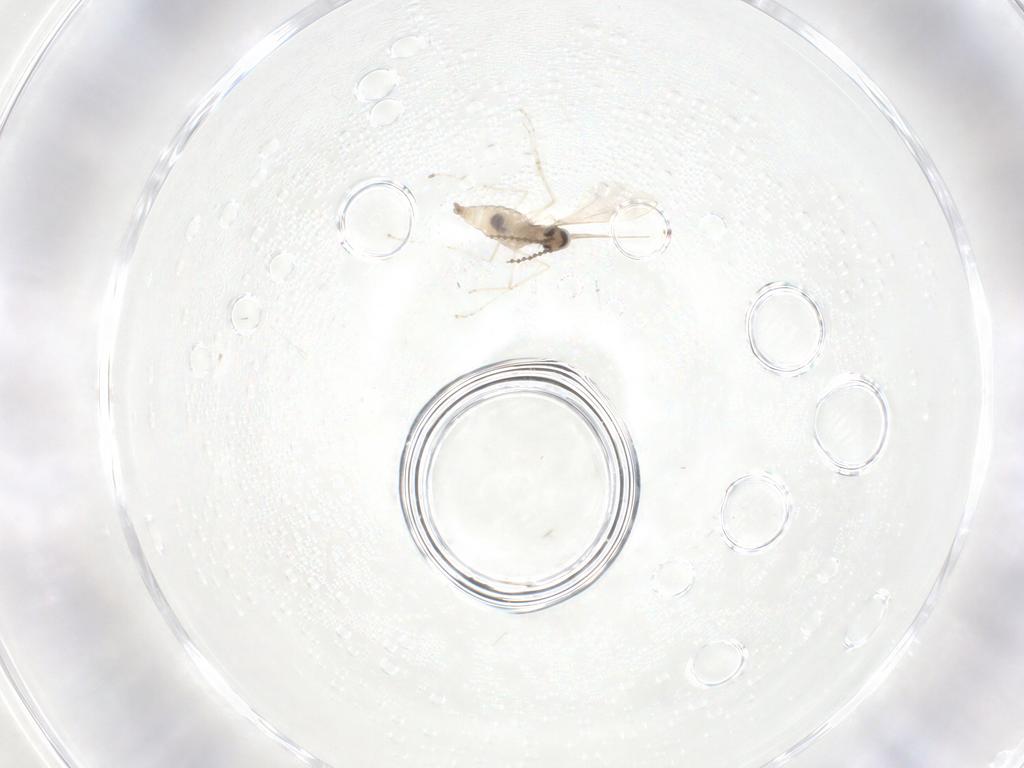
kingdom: Animalia
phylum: Arthropoda
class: Insecta
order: Diptera
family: Cecidomyiidae
